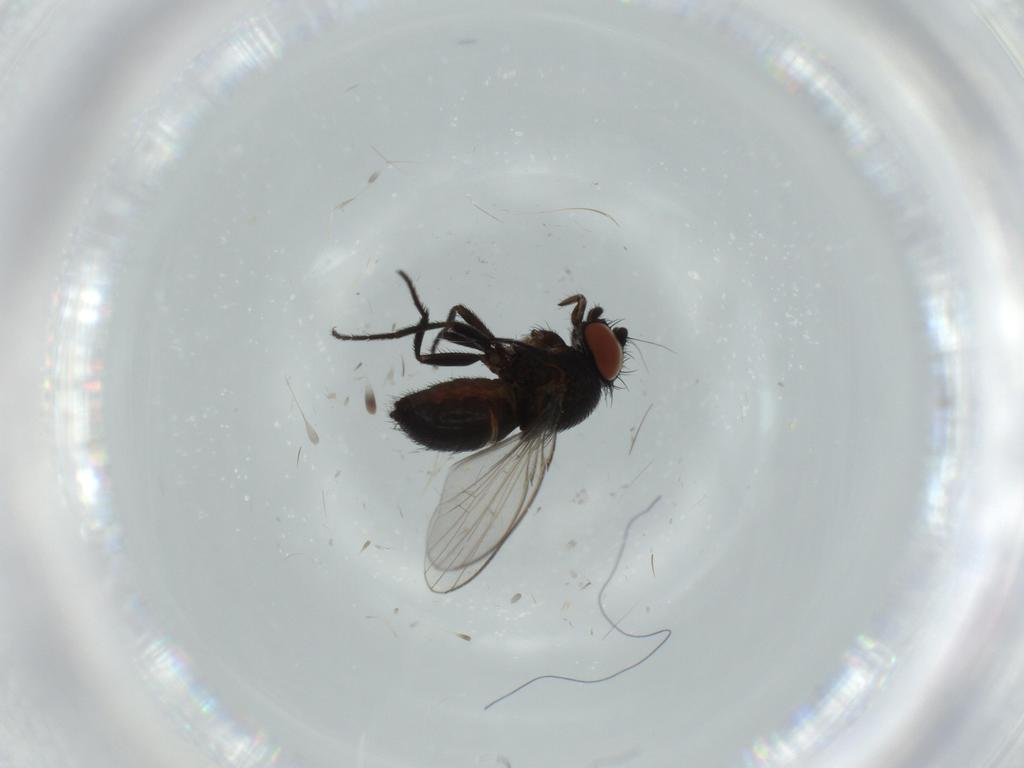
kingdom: Animalia
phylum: Arthropoda
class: Insecta
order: Diptera
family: Milichiidae
